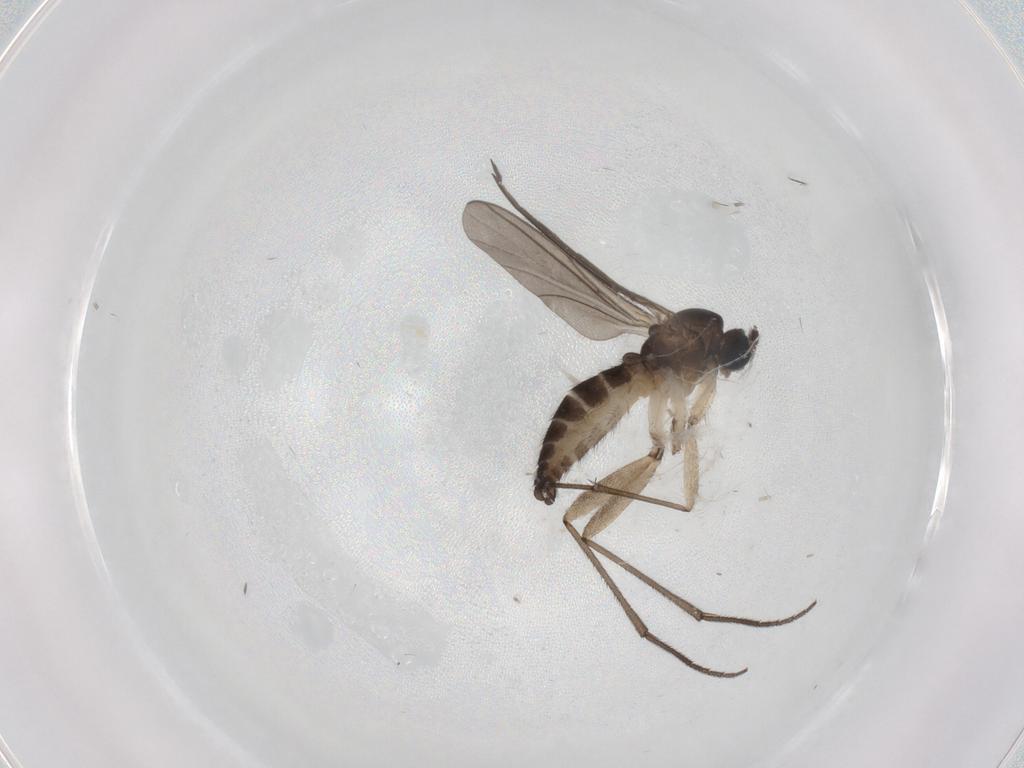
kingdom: Animalia
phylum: Arthropoda
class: Insecta
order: Diptera
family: Sciaridae
